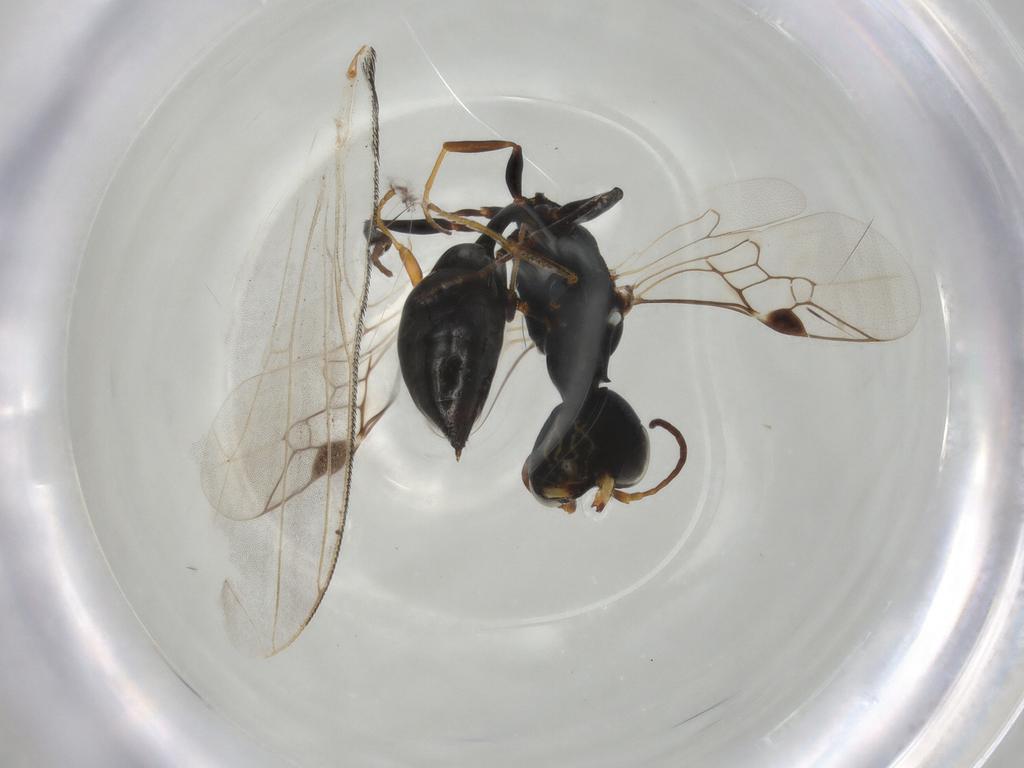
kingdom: Animalia
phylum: Arthropoda
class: Insecta
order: Hymenoptera
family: Crabronidae
